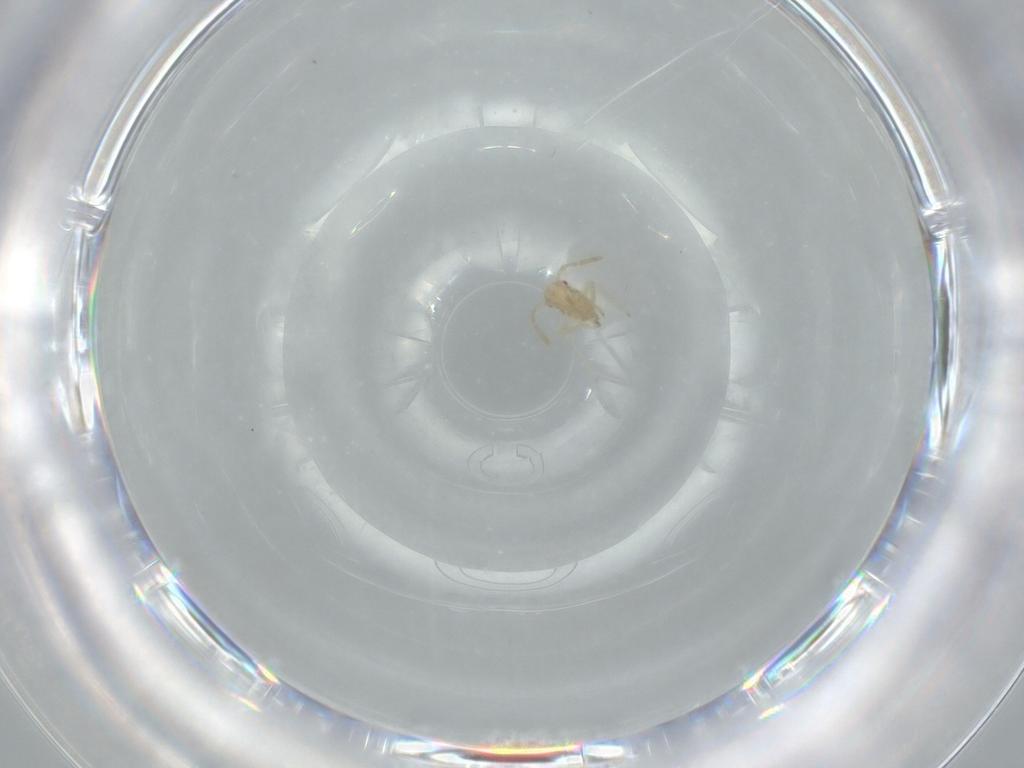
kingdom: Animalia
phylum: Arthropoda
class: Insecta
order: Hemiptera
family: Miridae
